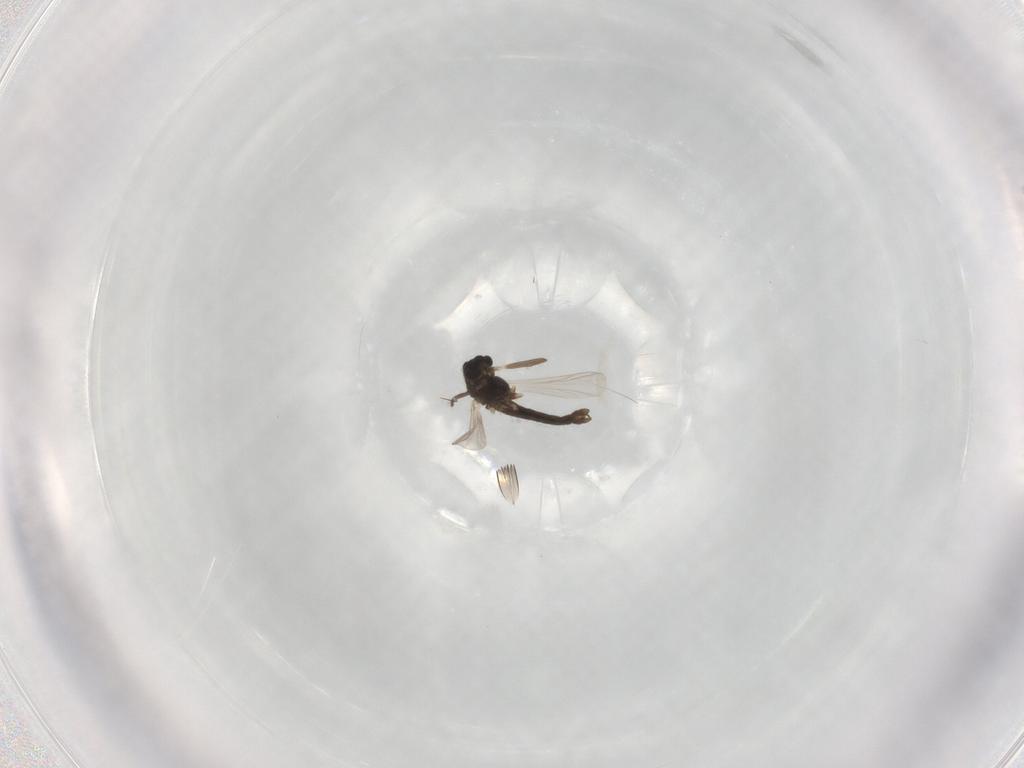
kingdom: Animalia
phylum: Arthropoda
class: Insecta
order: Diptera
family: Chironomidae
